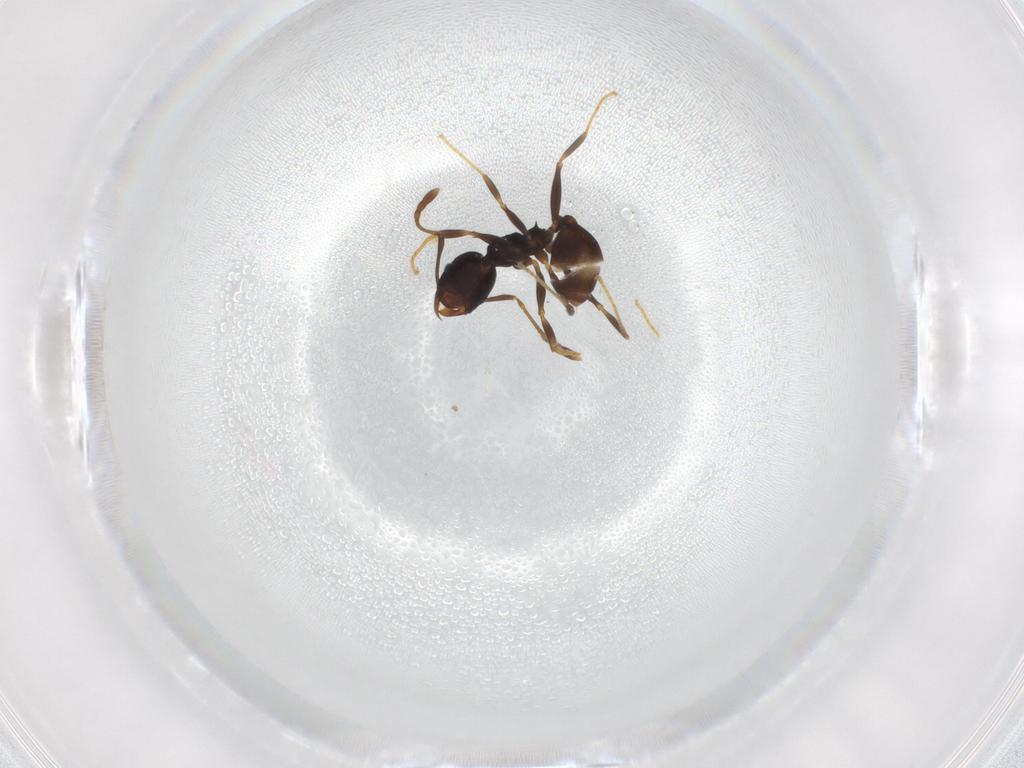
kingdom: Animalia
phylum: Arthropoda
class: Insecta
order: Hymenoptera
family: Formicidae
